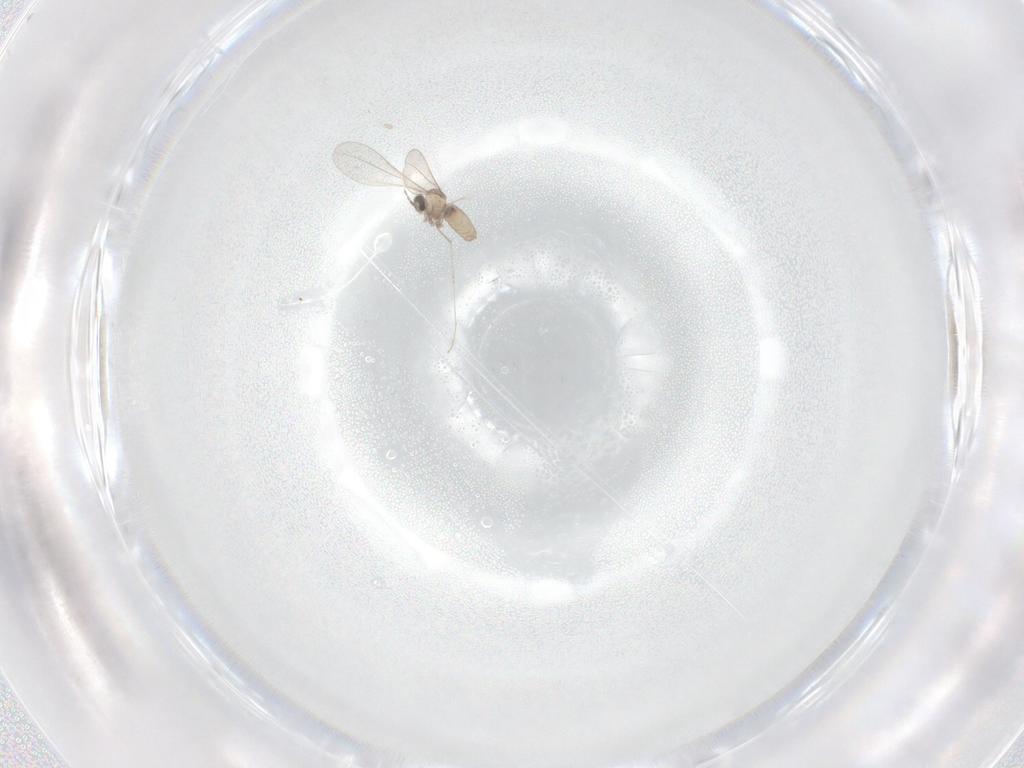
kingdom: Animalia
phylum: Arthropoda
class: Insecta
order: Diptera
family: Cecidomyiidae
